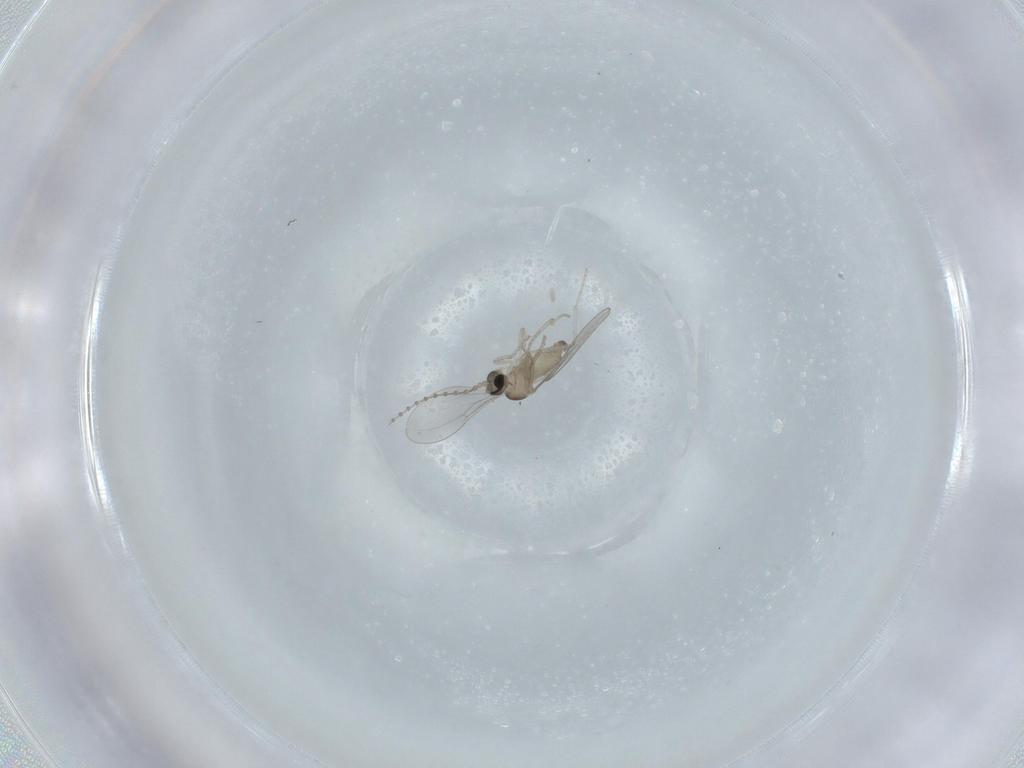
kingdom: Animalia
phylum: Arthropoda
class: Insecta
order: Diptera
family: Cecidomyiidae
